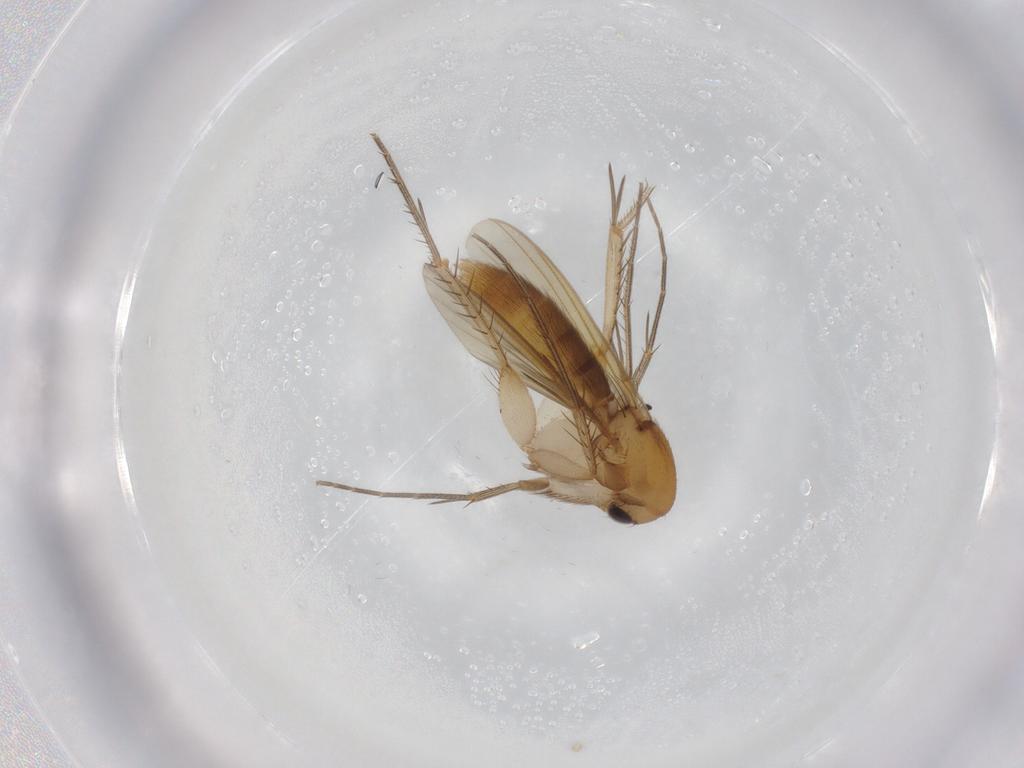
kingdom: Animalia
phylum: Arthropoda
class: Insecta
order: Diptera
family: Mycetophilidae
